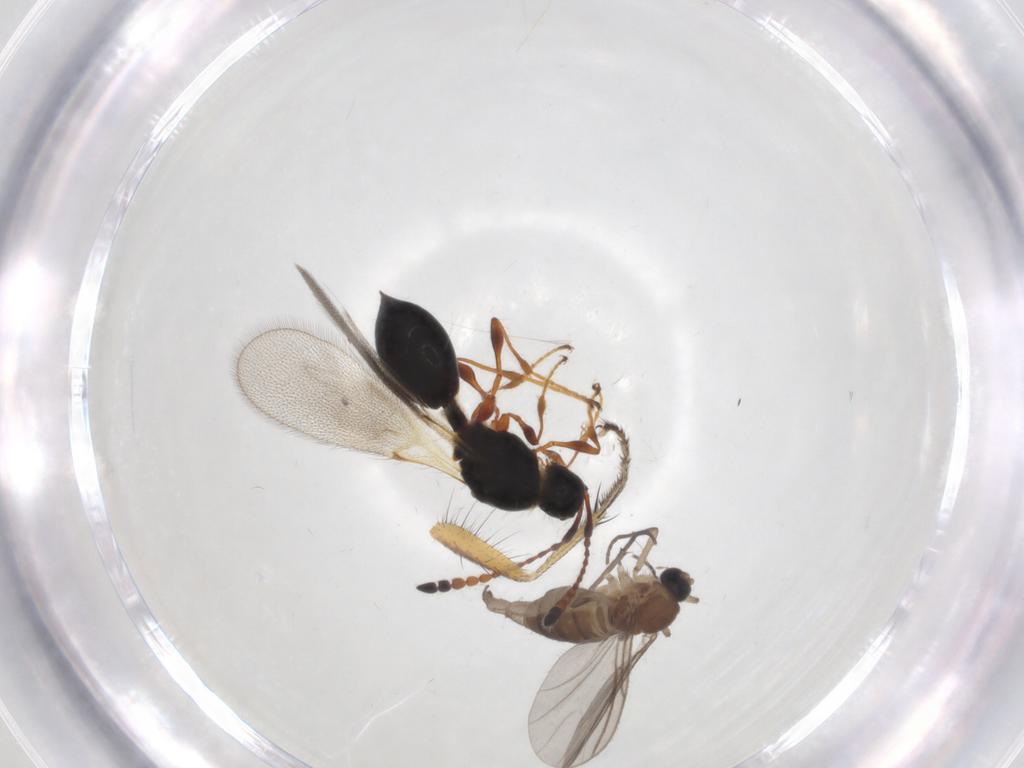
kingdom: Animalia
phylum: Arthropoda
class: Insecta
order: Diptera
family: Sciaridae
